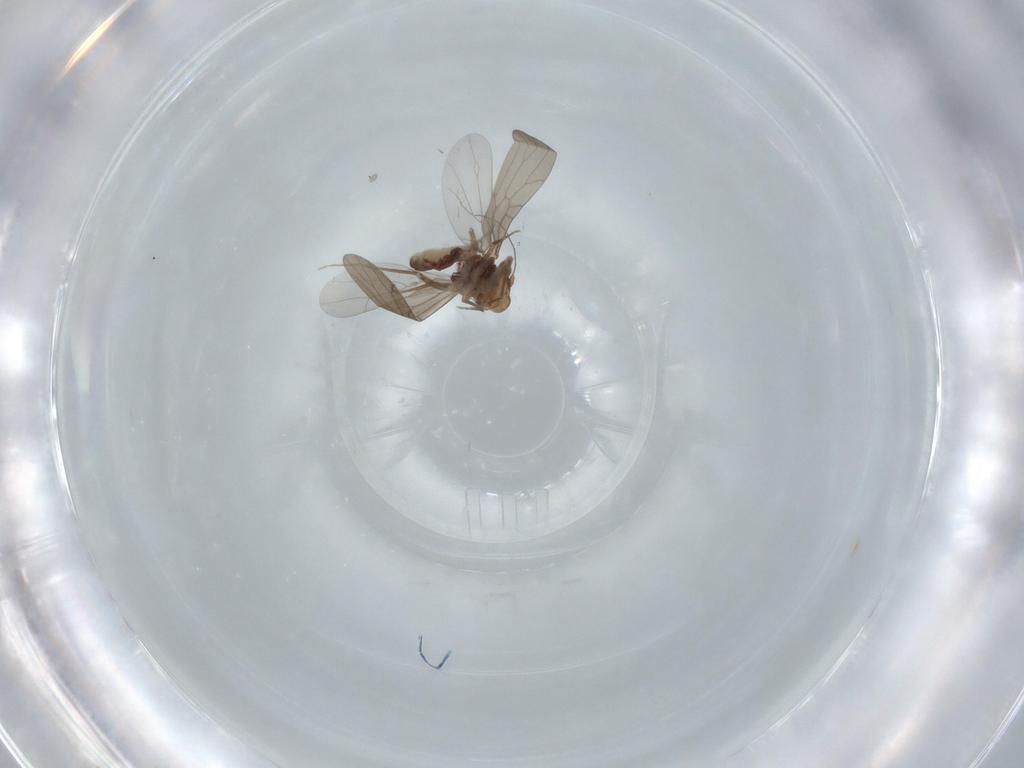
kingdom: Animalia
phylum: Arthropoda
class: Insecta
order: Psocodea
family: Lepidopsocidae
